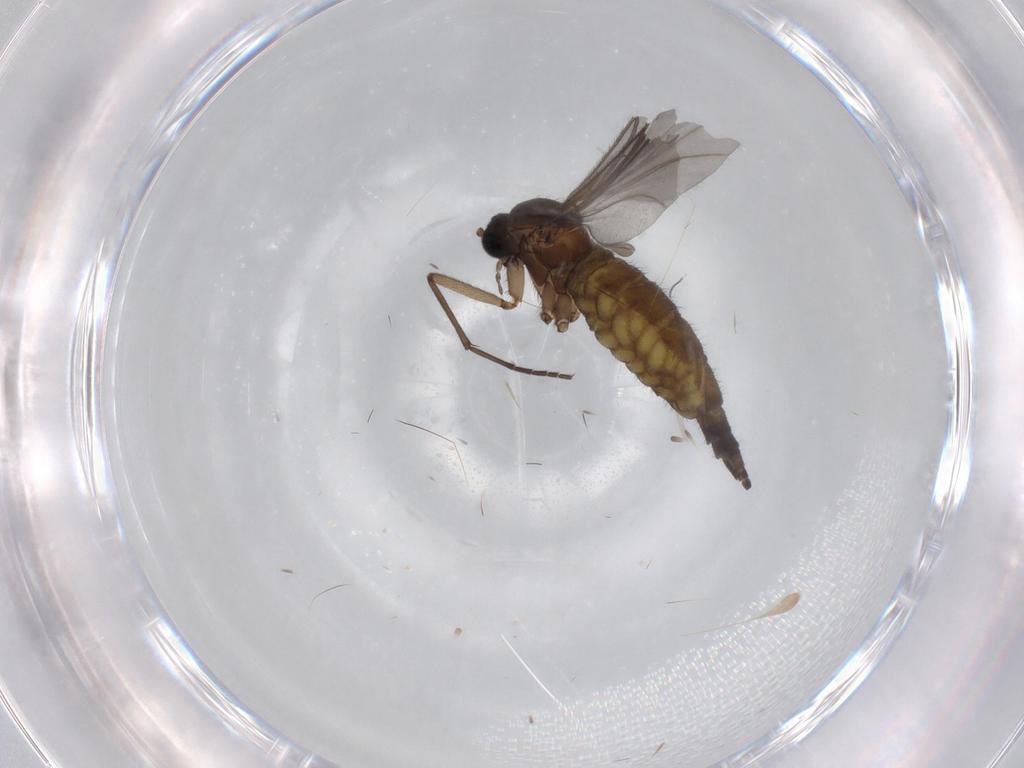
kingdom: Animalia
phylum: Arthropoda
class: Insecta
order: Diptera
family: Sciaridae
